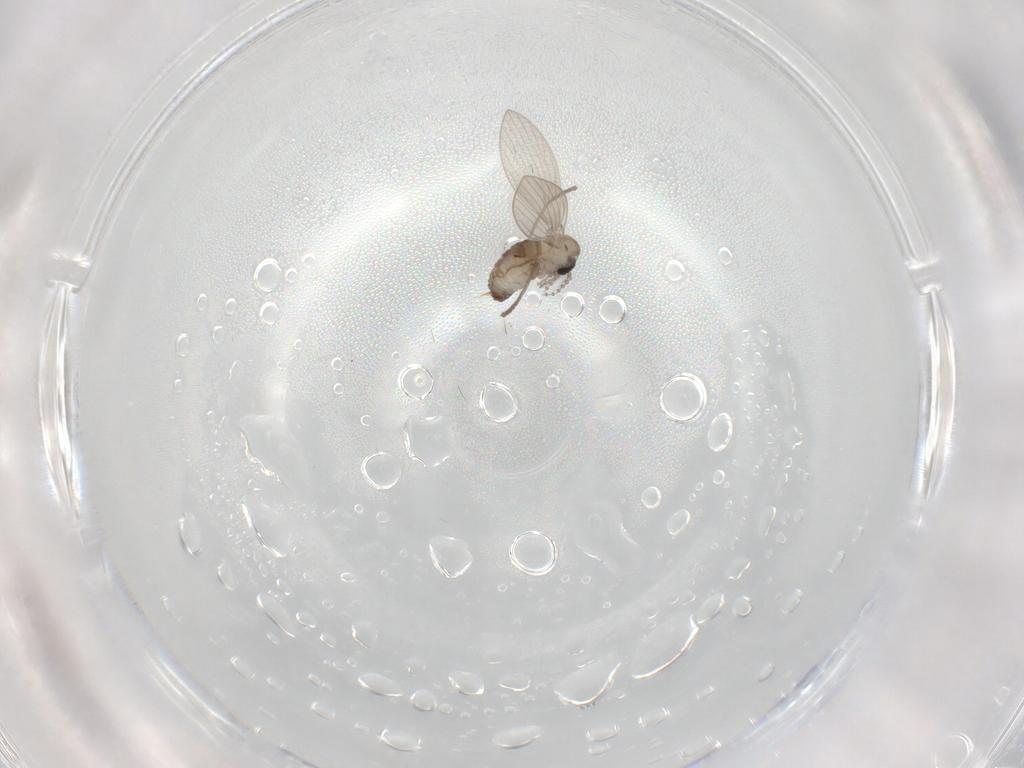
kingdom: Animalia
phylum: Arthropoda
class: Insecta
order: Diptera
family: Psychodidae
